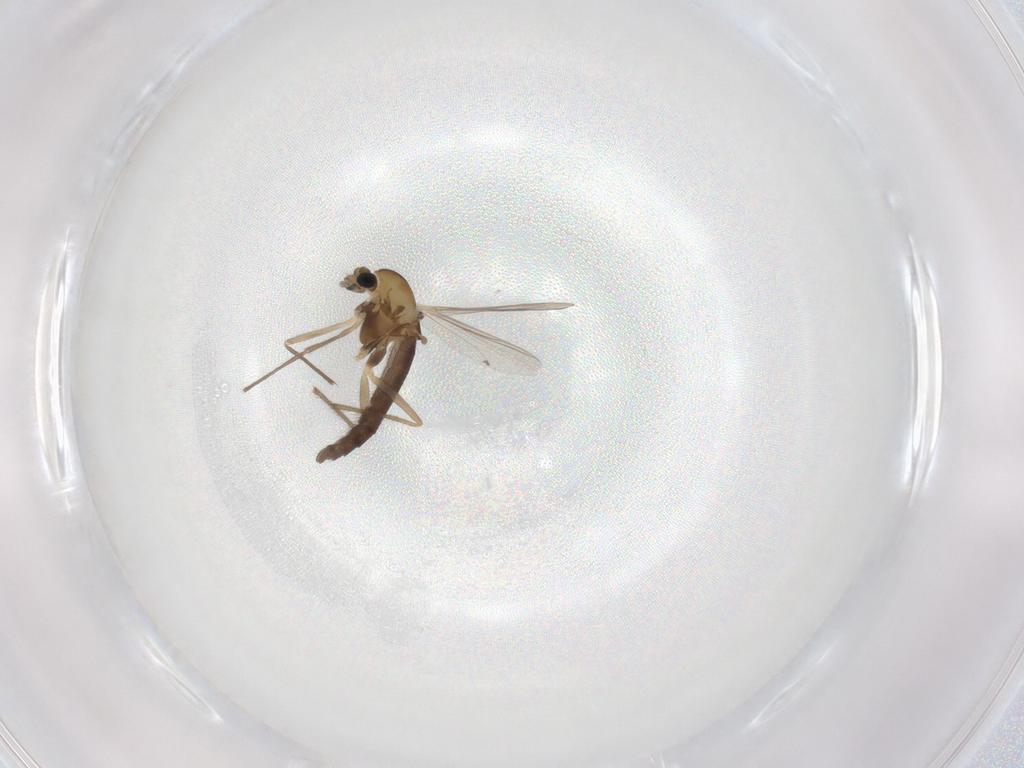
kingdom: Animalia
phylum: Arthropoda
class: Insecta
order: Diptera
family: Chironomidae
